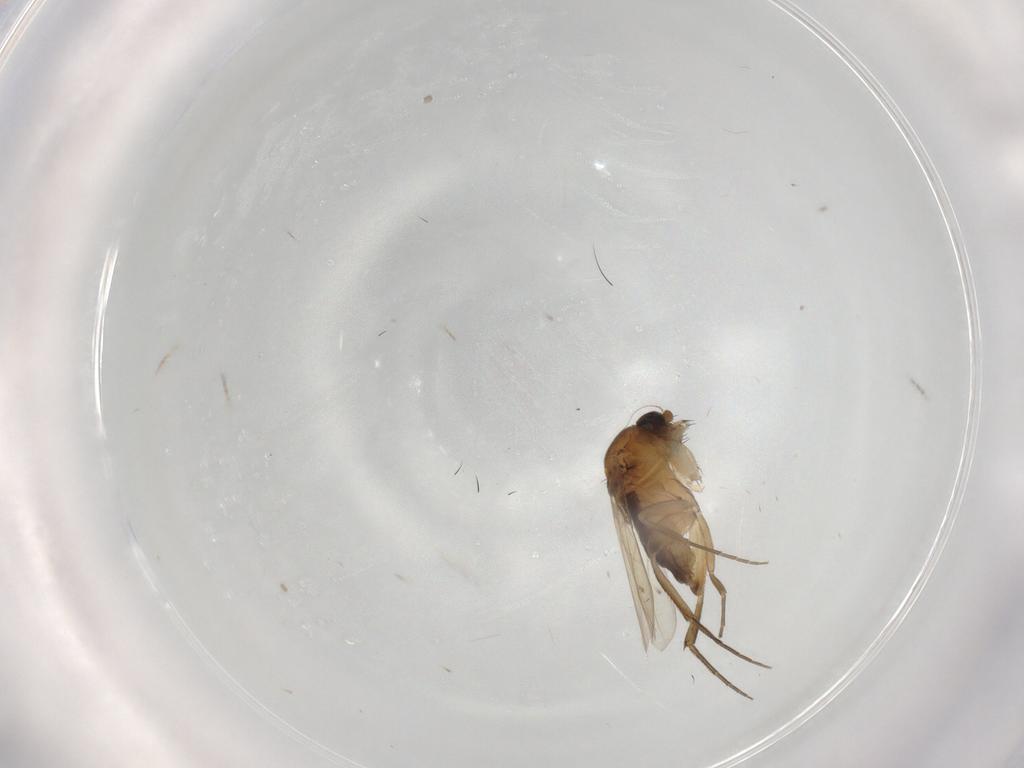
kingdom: Animalia
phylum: Arthropoda
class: Insecta
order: Diptera
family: Phoridae
